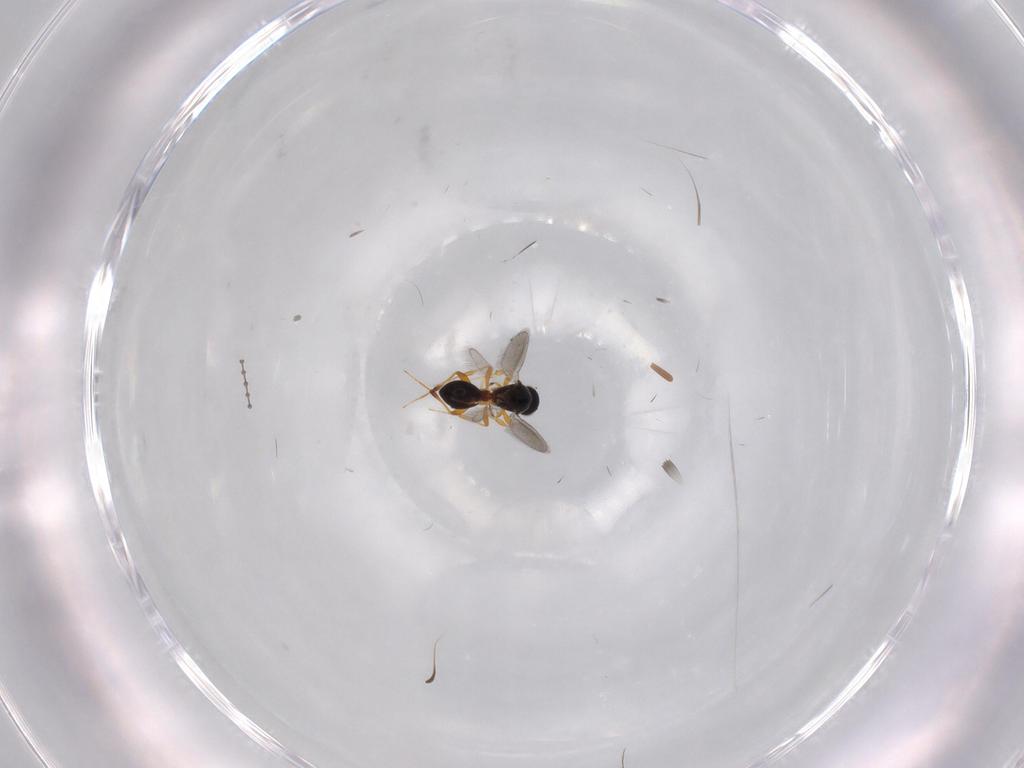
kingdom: Animalia
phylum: Arthropoda
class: Insecta
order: Hymenoptera
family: Platygastridae
